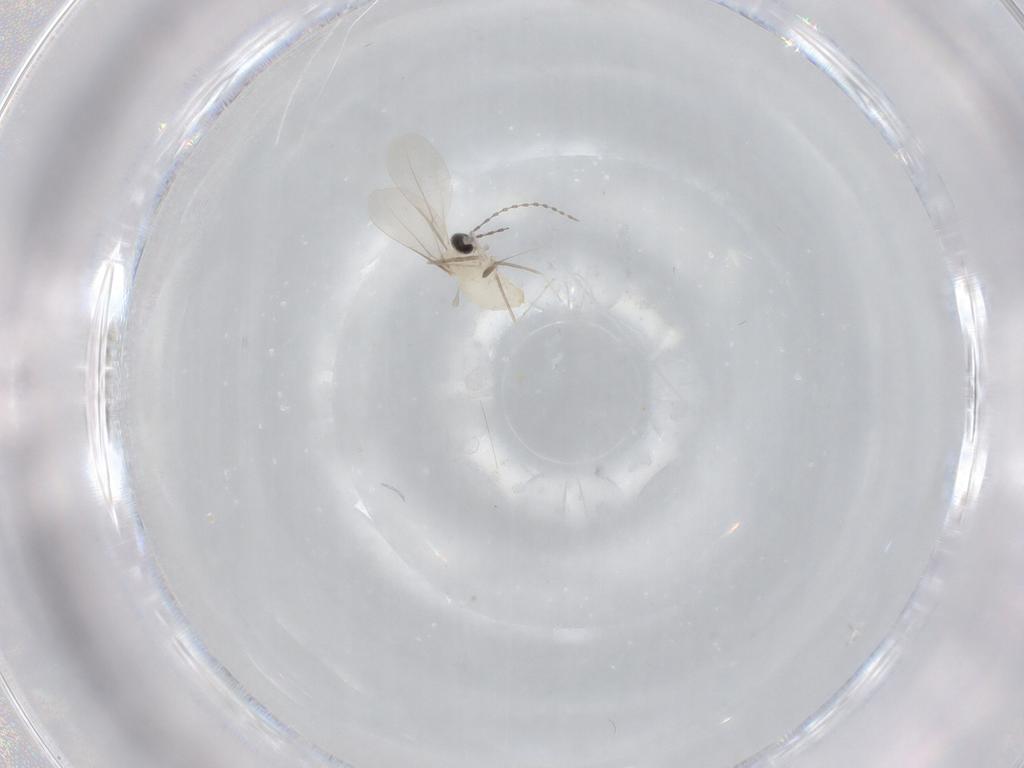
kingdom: Animalia
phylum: Arthropoda
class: Insecta
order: Diptera
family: Cecidomyiidae
